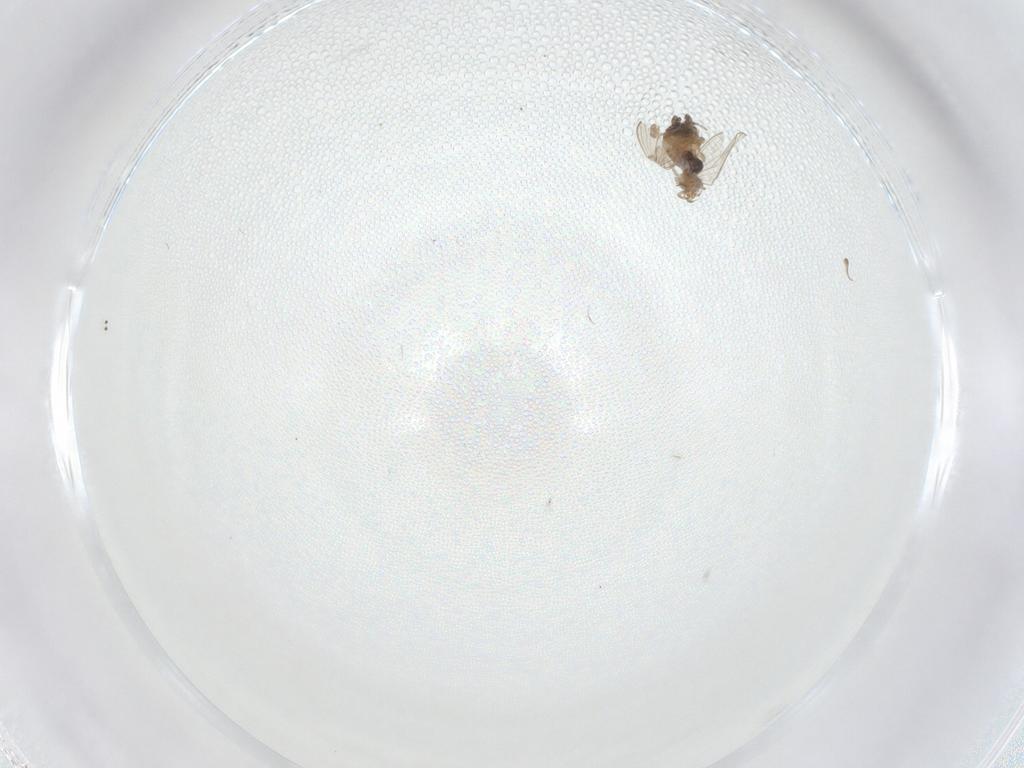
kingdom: Animalia
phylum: Arthropoda
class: Insecta
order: Diptera
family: Psychodidae
